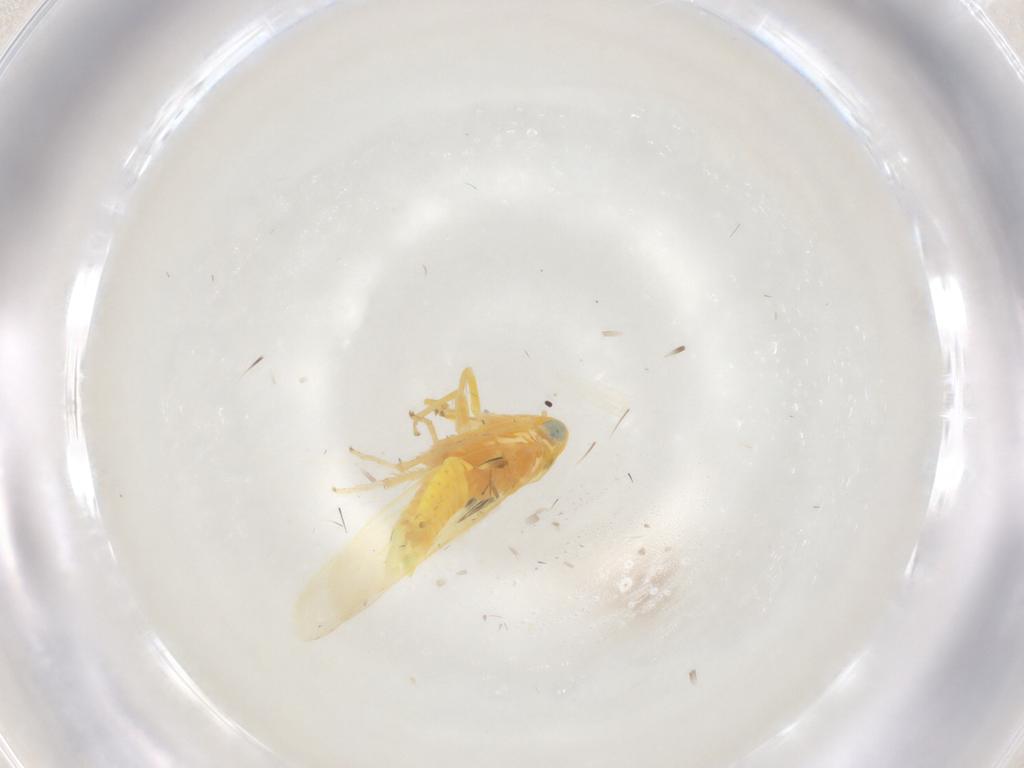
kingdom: Animalia
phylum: Arthropoda
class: Insecta
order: Hemiptera
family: Cicadellidae
